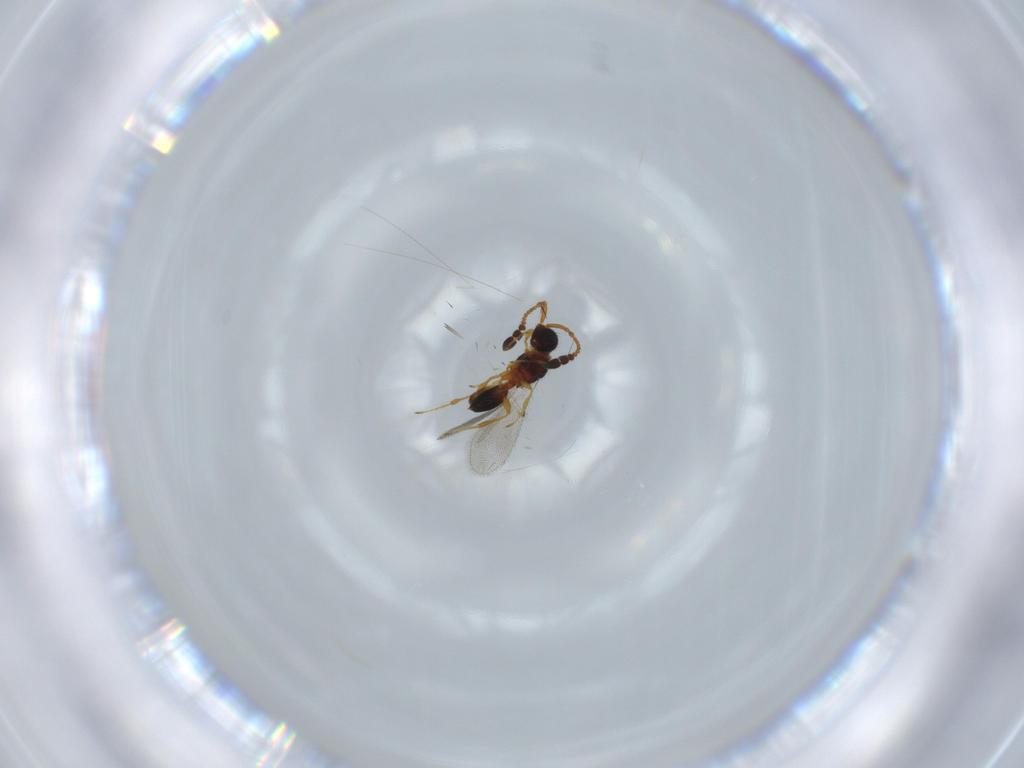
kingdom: Animalia
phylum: Arthropoda
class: Insecta
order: Hymenoptera
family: Diapriidae
